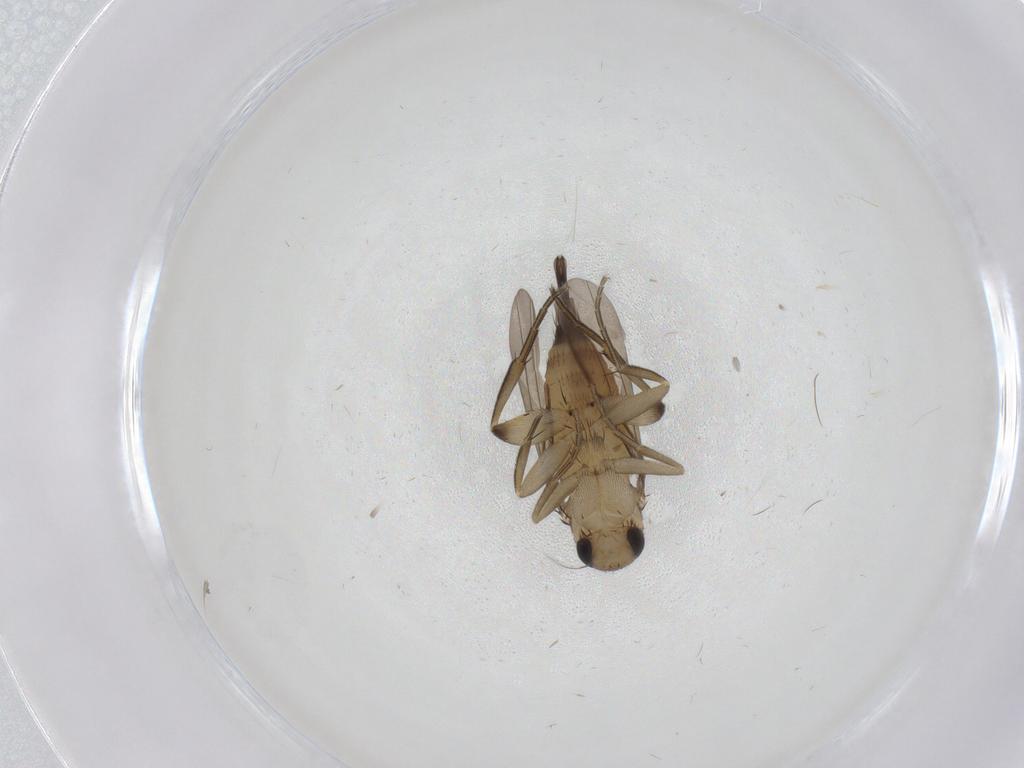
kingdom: Animalia
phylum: Arthropoda
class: Insecta
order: Diptera
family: Phoridae
